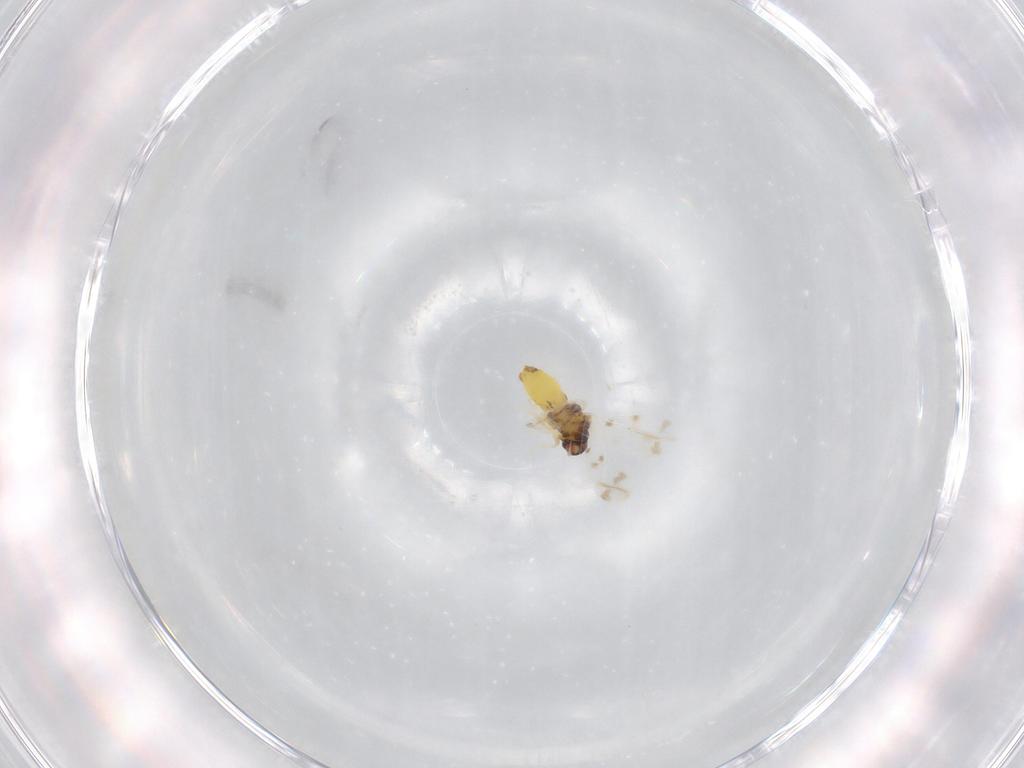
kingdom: Animalia
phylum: Arthropoda
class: Insecta
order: Hemiptera
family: Aleyrodidae
